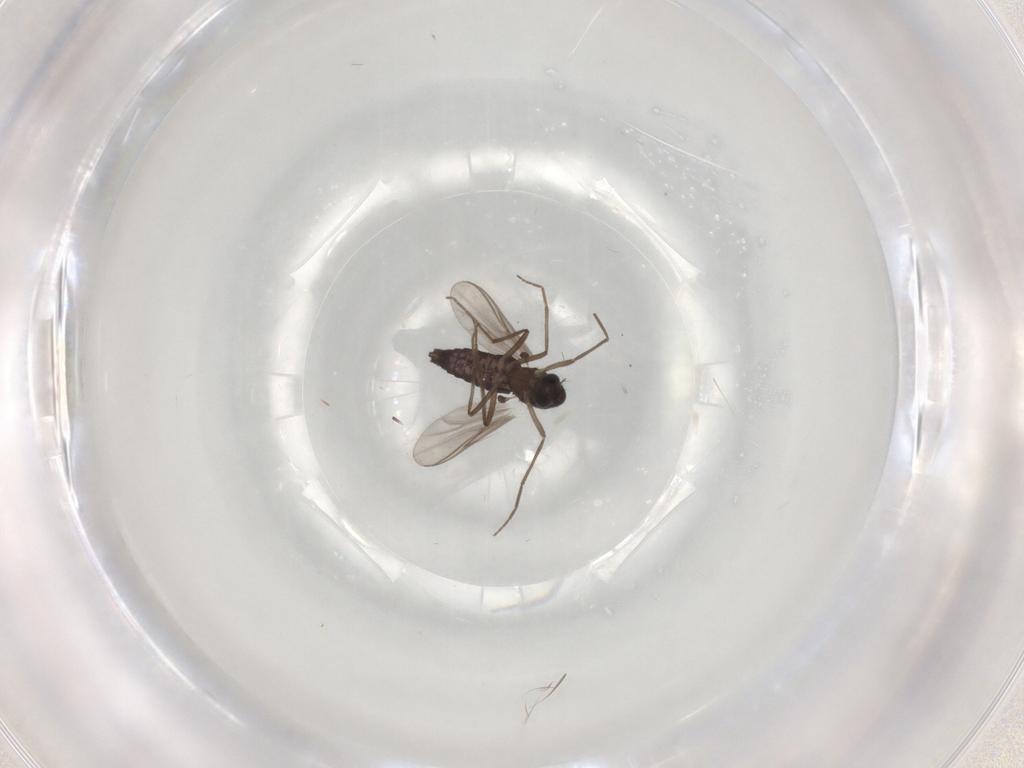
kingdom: Animalia
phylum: Arthropoda
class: Insecta
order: Diptera
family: Chironomidae
